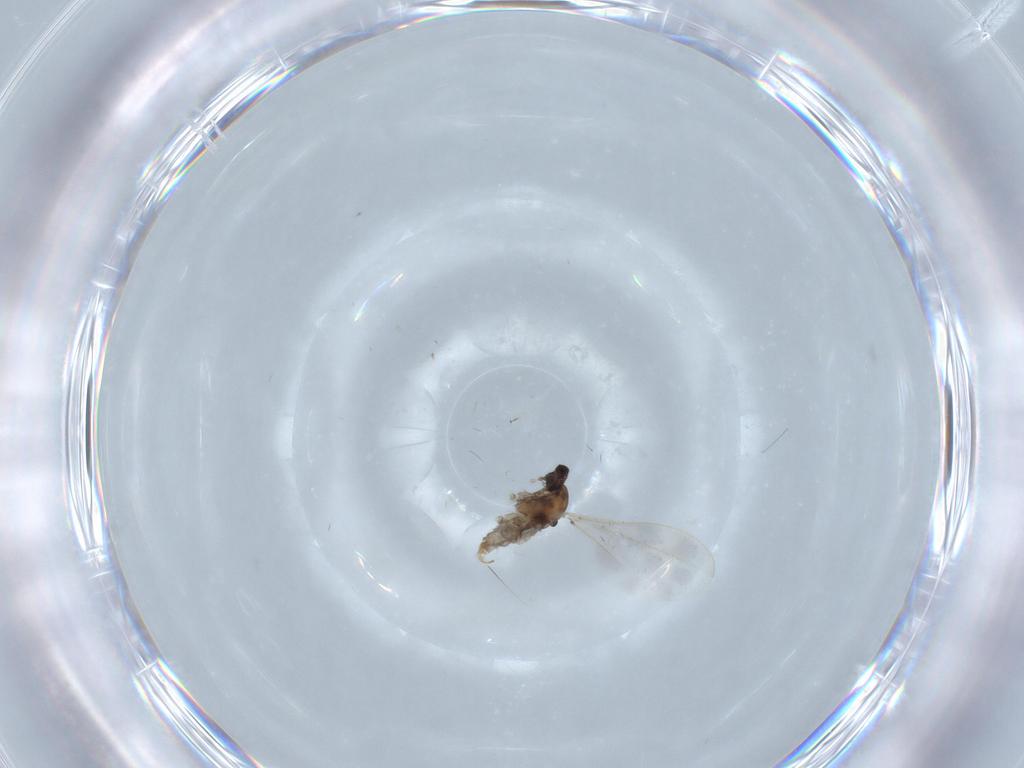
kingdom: Animalia
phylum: Arthropoda
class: Insecta
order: Diptera
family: Cecidomyiidae
